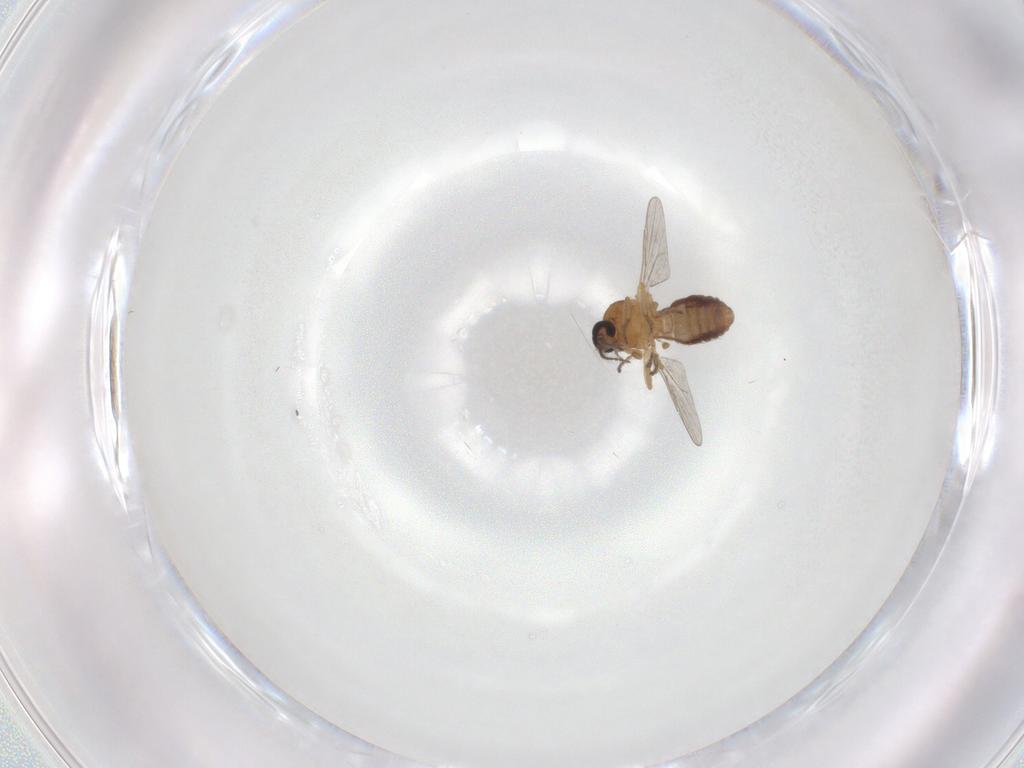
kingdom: Animalia
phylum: Arthropoda
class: Insecta
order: Diptera
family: Ceratopogonidae
